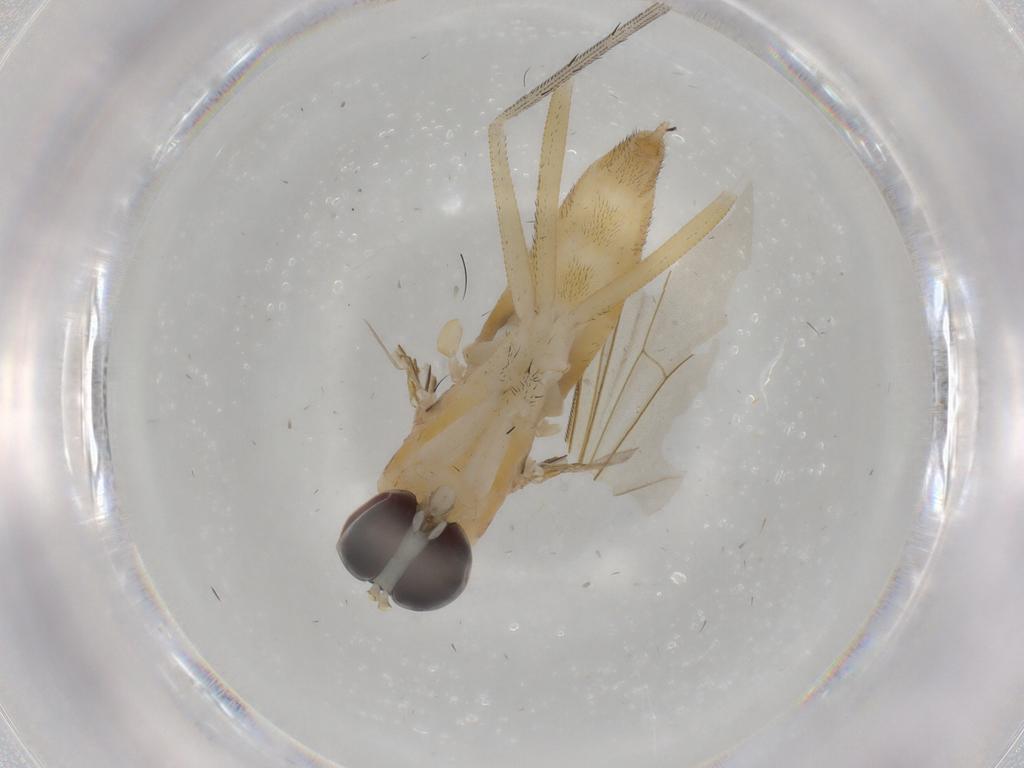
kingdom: Animalia
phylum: Arthropoda
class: Insecta
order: Diptera
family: Dolichopodidae
